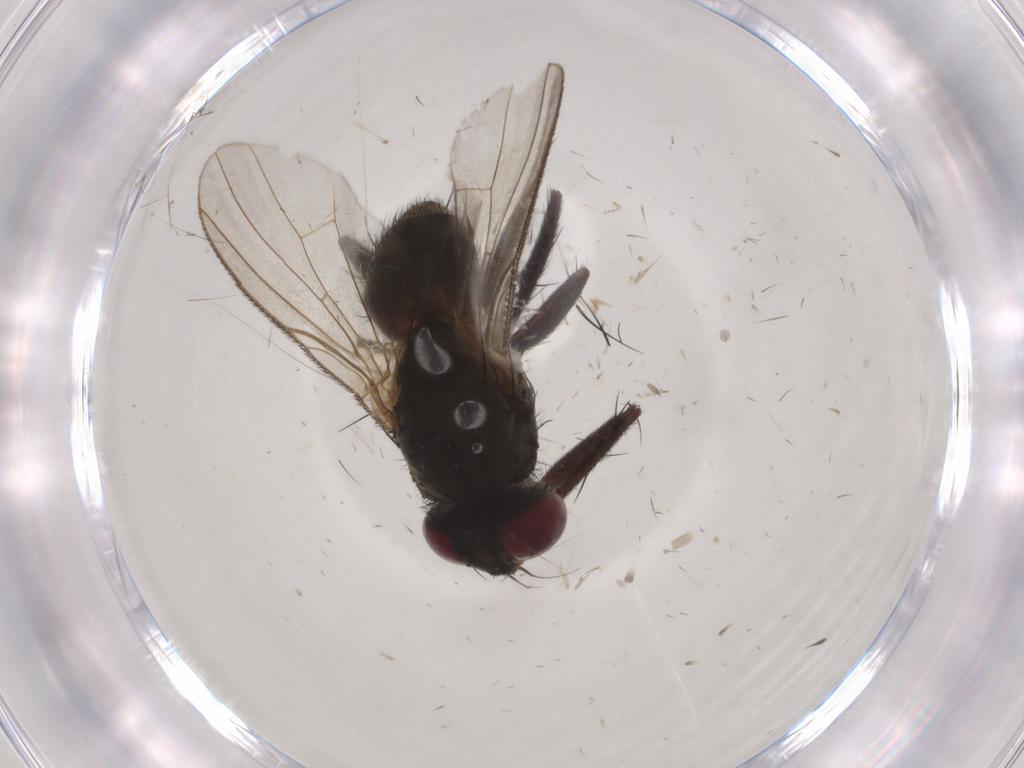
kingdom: Animalia
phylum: Arthropoda
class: Insecta
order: Diptera
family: Muscidae
